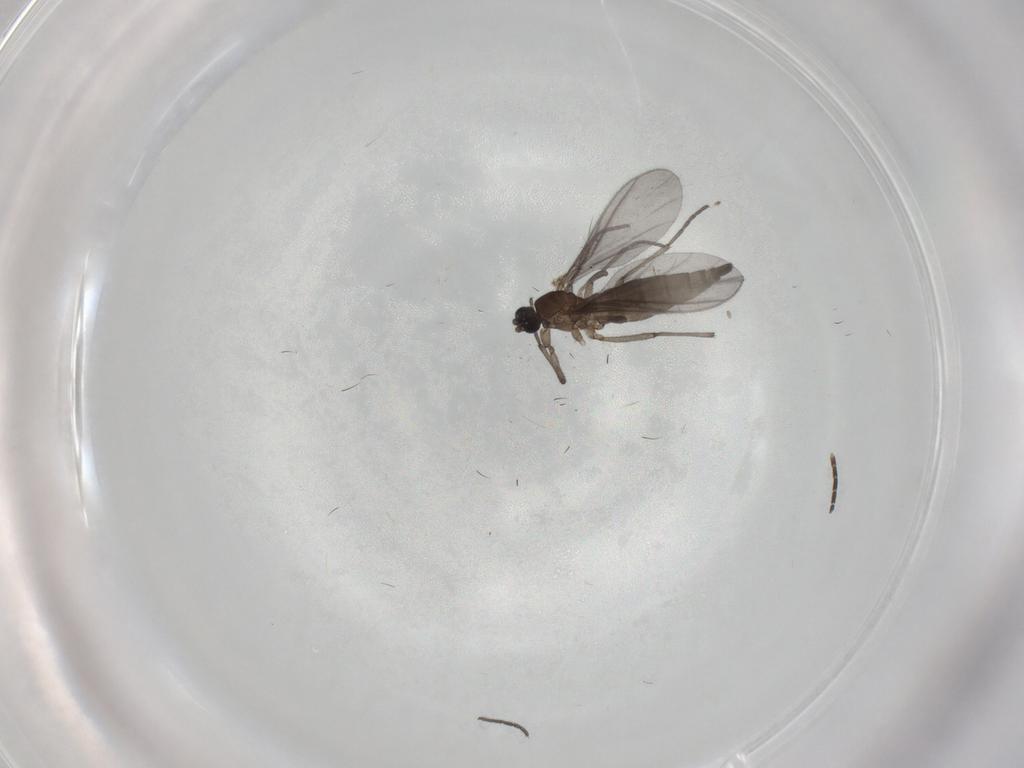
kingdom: Animalia
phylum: Arthropoda
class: Insecta
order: Diptera
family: Sciaridae
